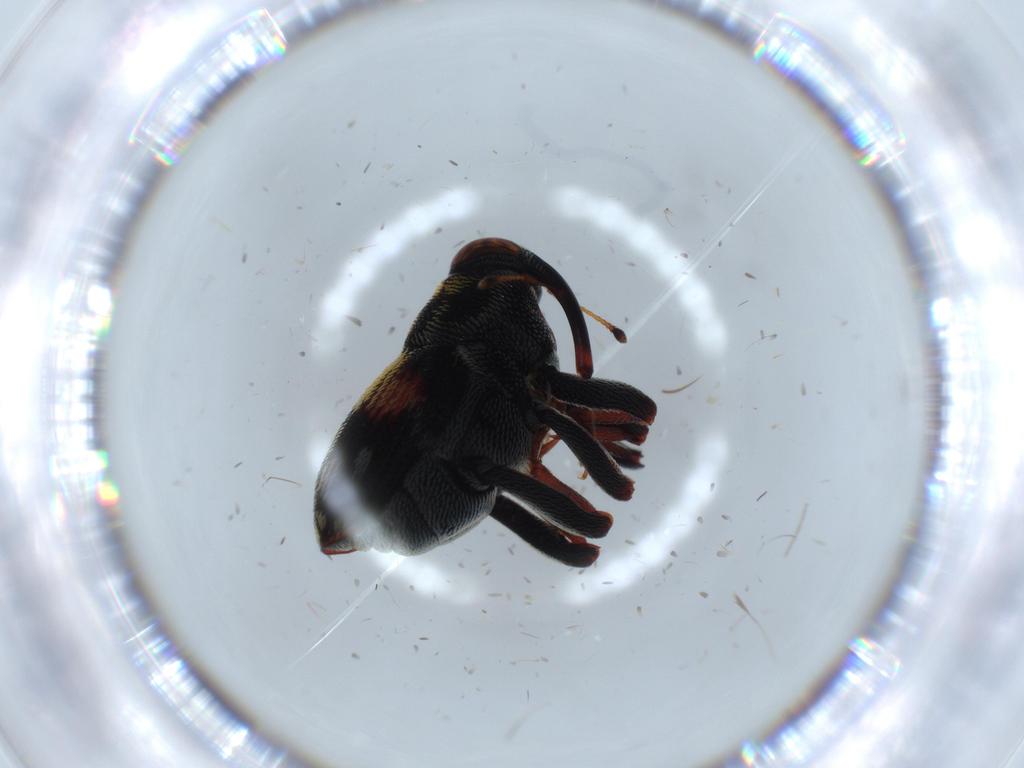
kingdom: Animalia
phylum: Arthropoda
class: Insecta
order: Coleoptera
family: Curculionidae
